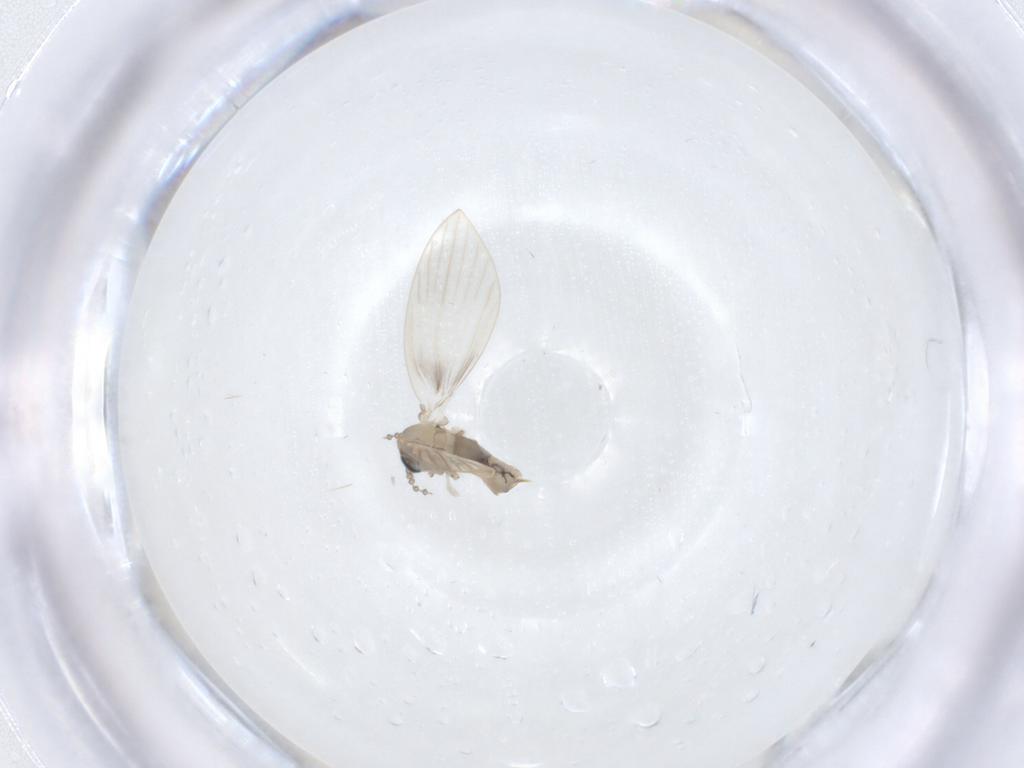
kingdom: Animalia
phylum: Arthropoda
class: Insecta
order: Diptera
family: Psychodidae
